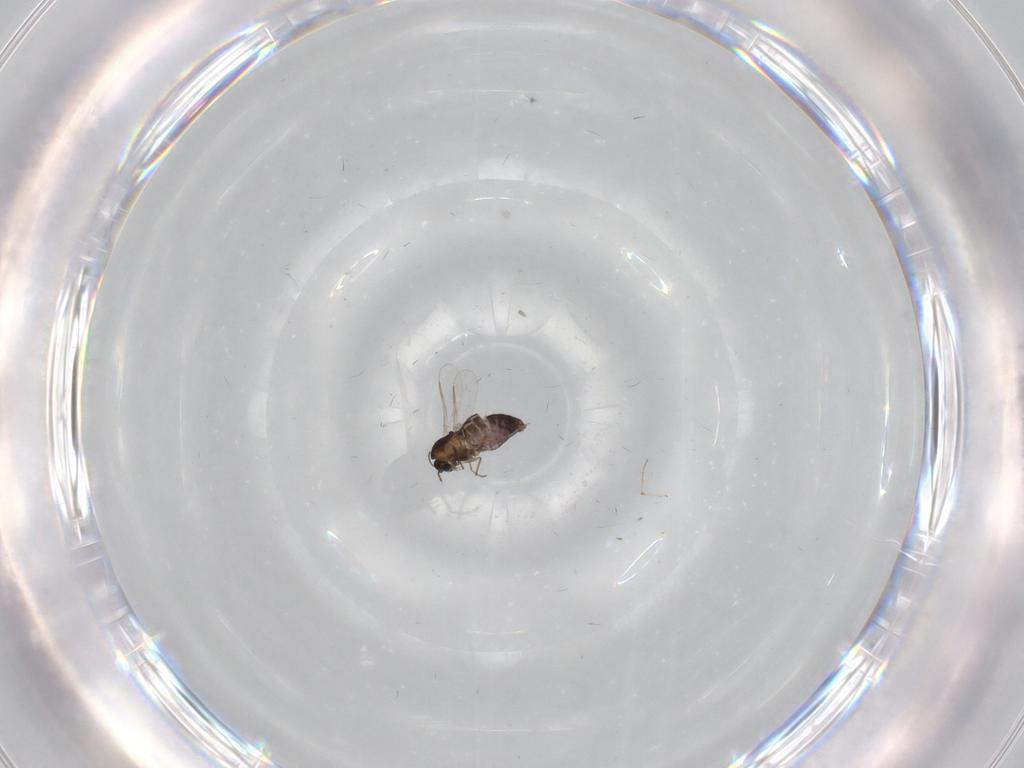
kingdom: Animalia
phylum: Arthropoda
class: Insecta
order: Diptera
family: Chironomidae
